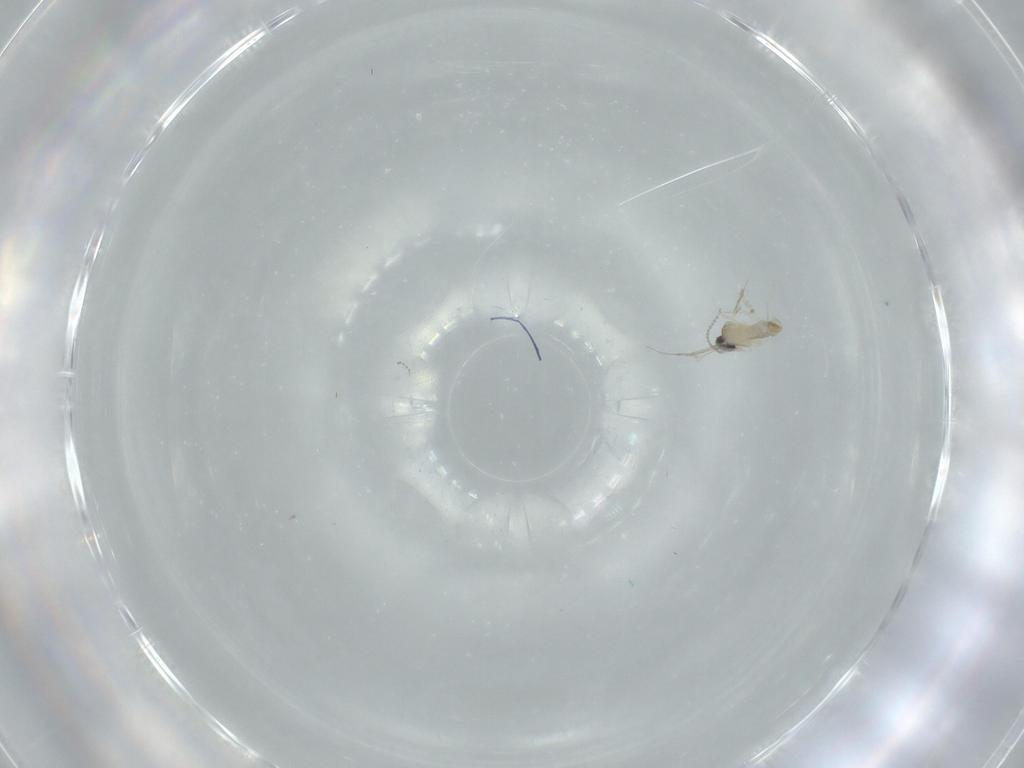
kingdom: Animalia
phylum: Arthropoda
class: Insecta
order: Diptera
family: Cecidomyiidae
